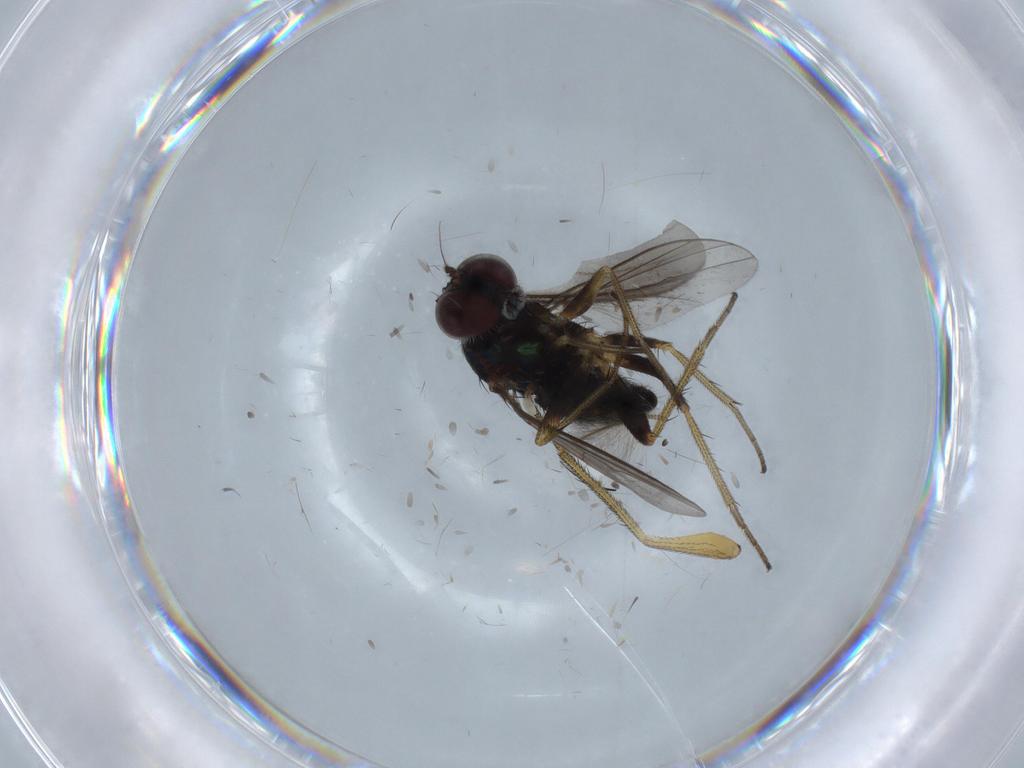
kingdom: Animalia
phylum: Arthropoda
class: Insecta
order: Diptera
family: Sciaridae
